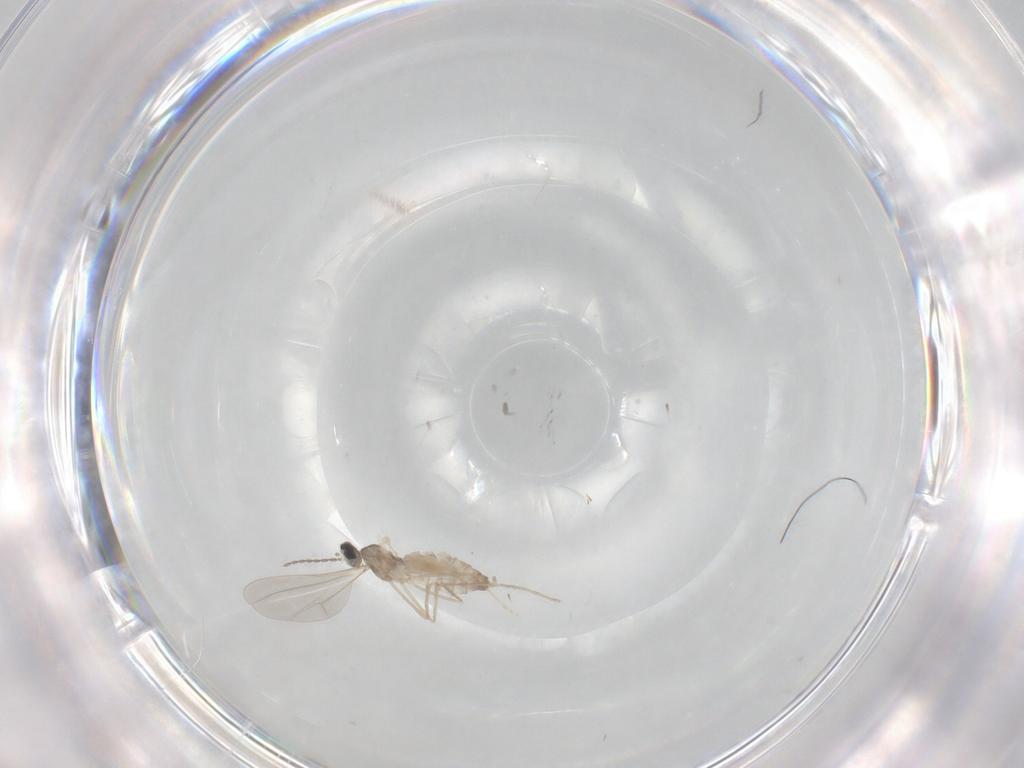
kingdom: Animalia
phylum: Arthropoda
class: Insecta
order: Diptera
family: Cecidomyiidae
